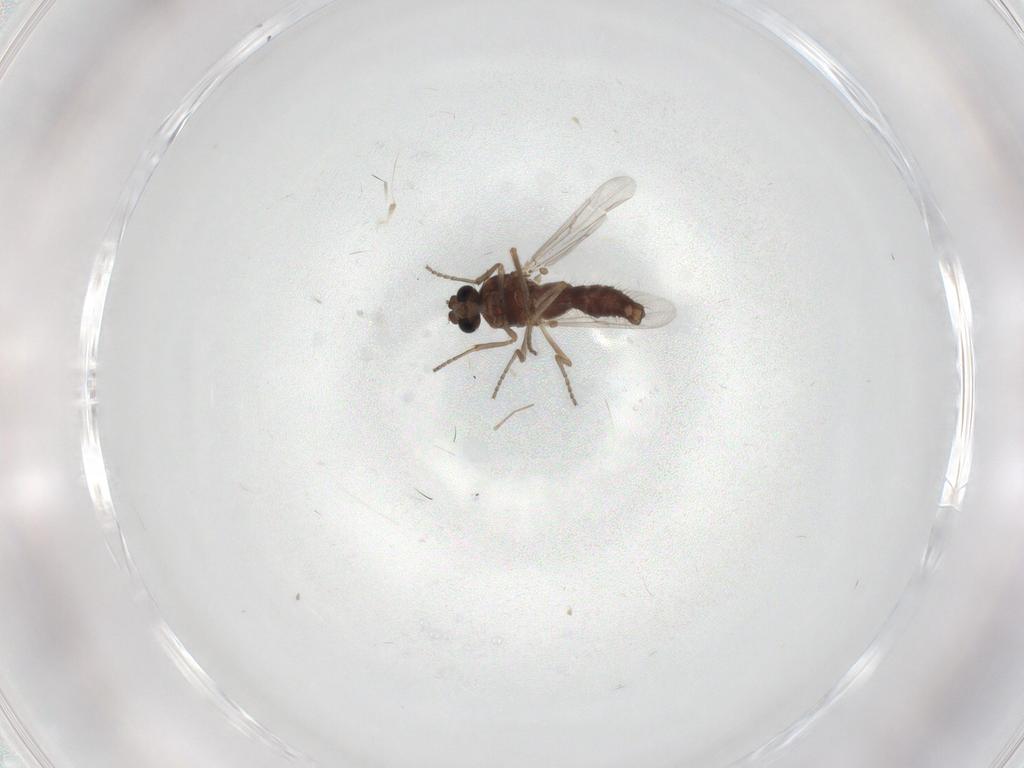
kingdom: Animalia
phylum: Arthropoda
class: Insecta
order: Diptera
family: Ceratopogonidae
